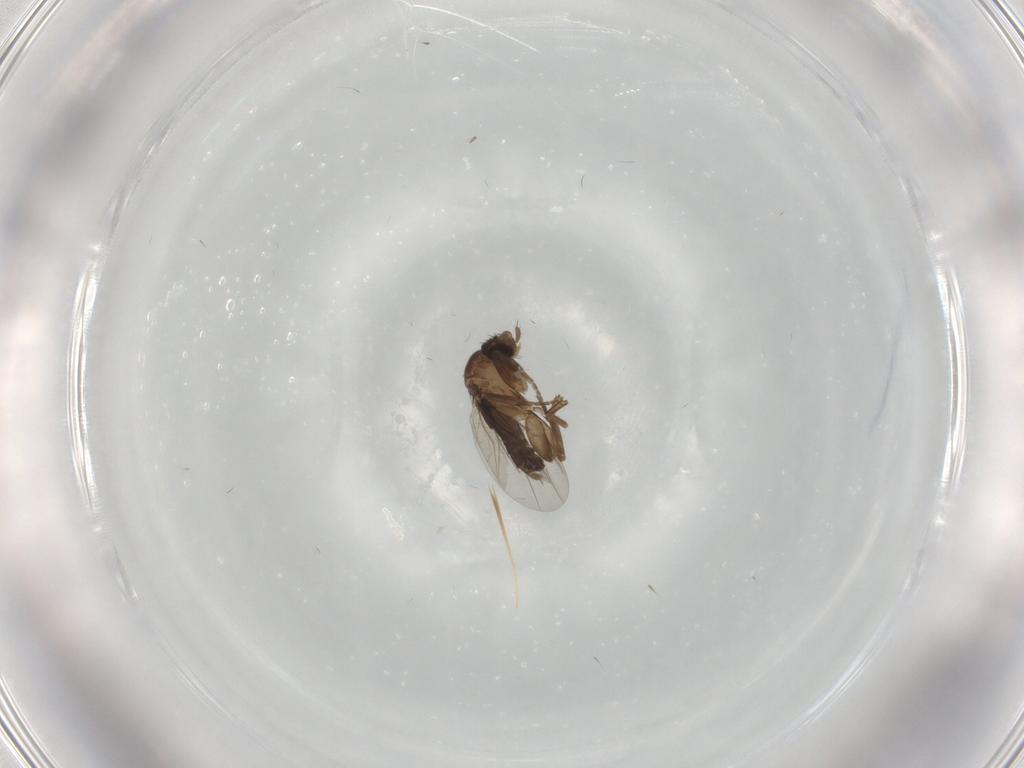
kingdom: Animalia
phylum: Arthropoda
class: Insecta
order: Diptera
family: Phoridae
